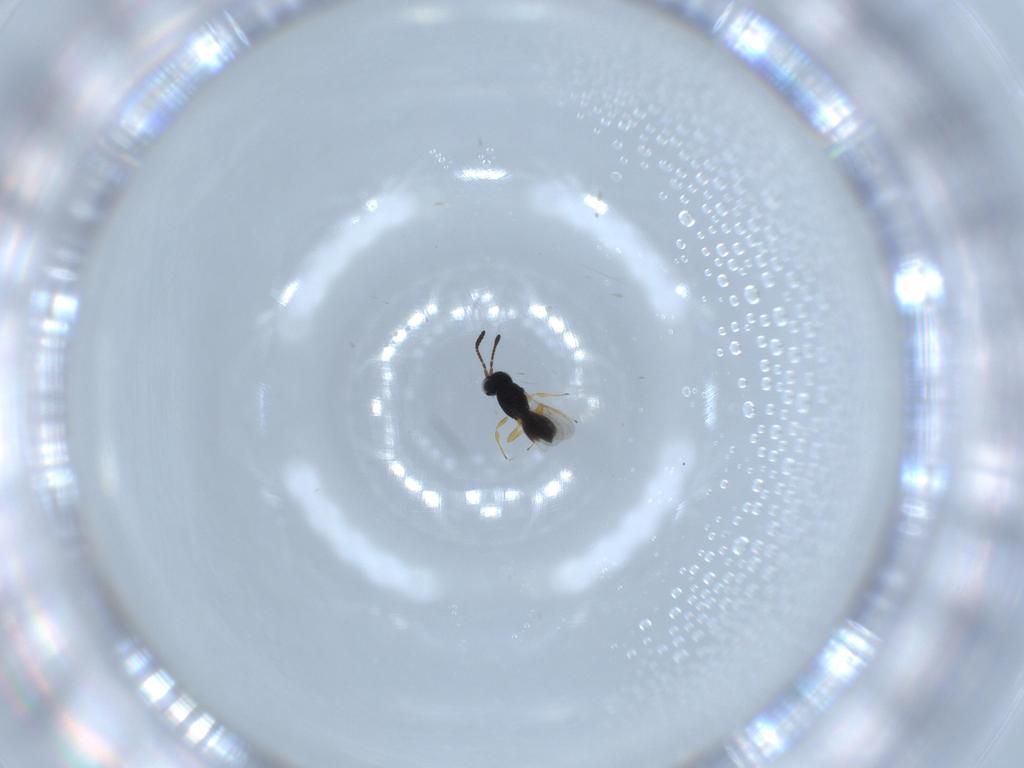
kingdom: Animalia
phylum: Arthropoda
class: Insecta
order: Hymenoptera
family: Scelionidae
